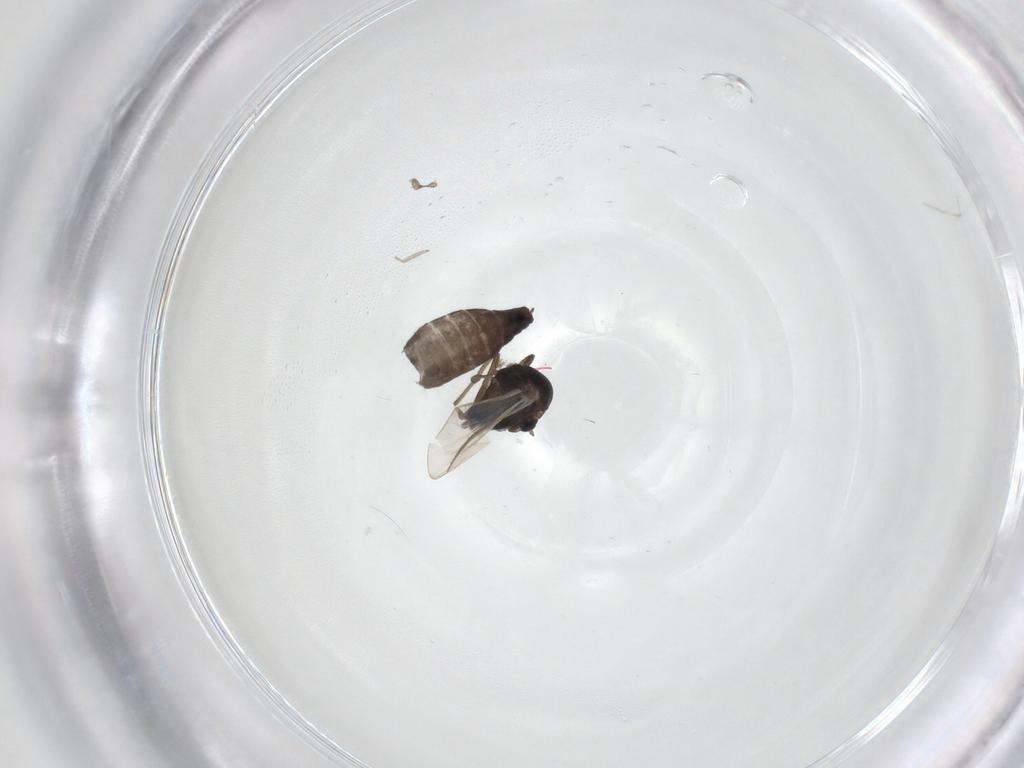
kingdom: Animalia
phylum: Arthropoda
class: Insecta
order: Diptera
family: Cecidomyiidae
